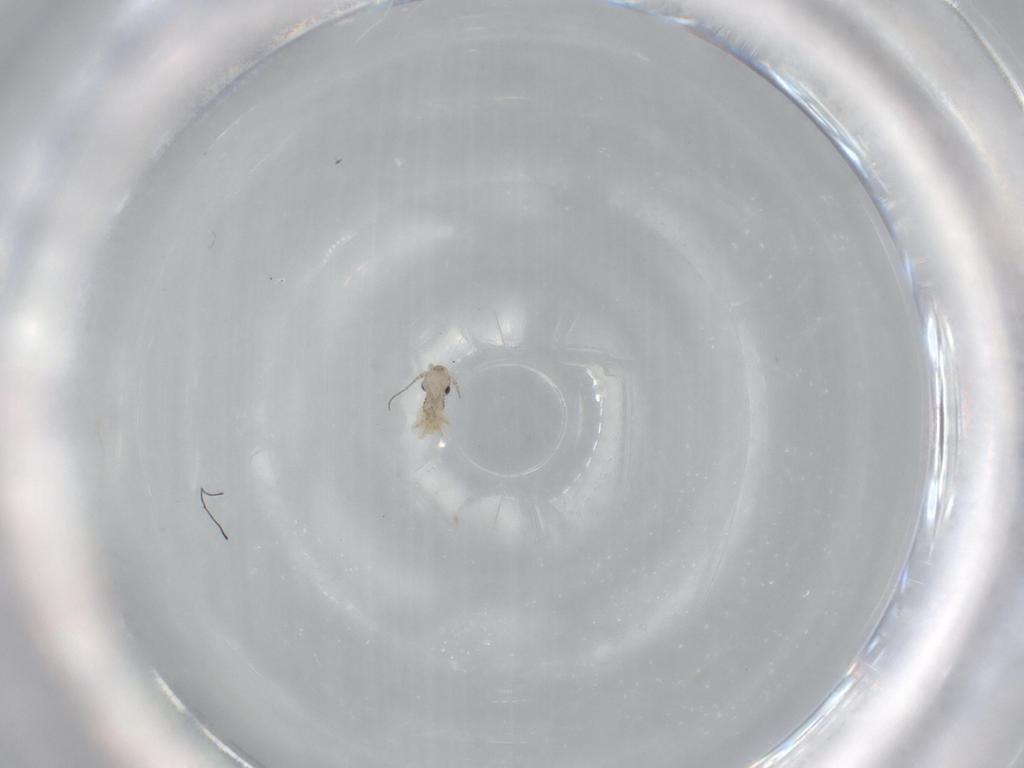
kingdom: Animalia
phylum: Arthropoda
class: Insecta
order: Psocodea
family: Lepidopsocidae
